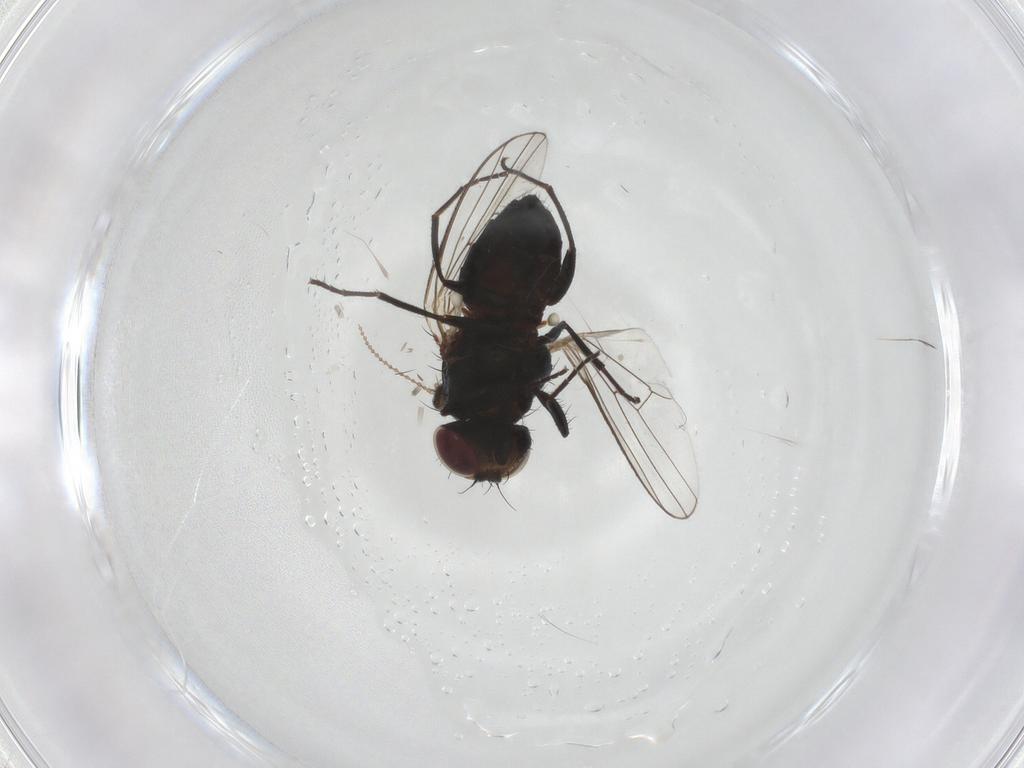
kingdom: Animalia
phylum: Arthropoda
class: Insecta
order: Diptera
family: Carnidae
